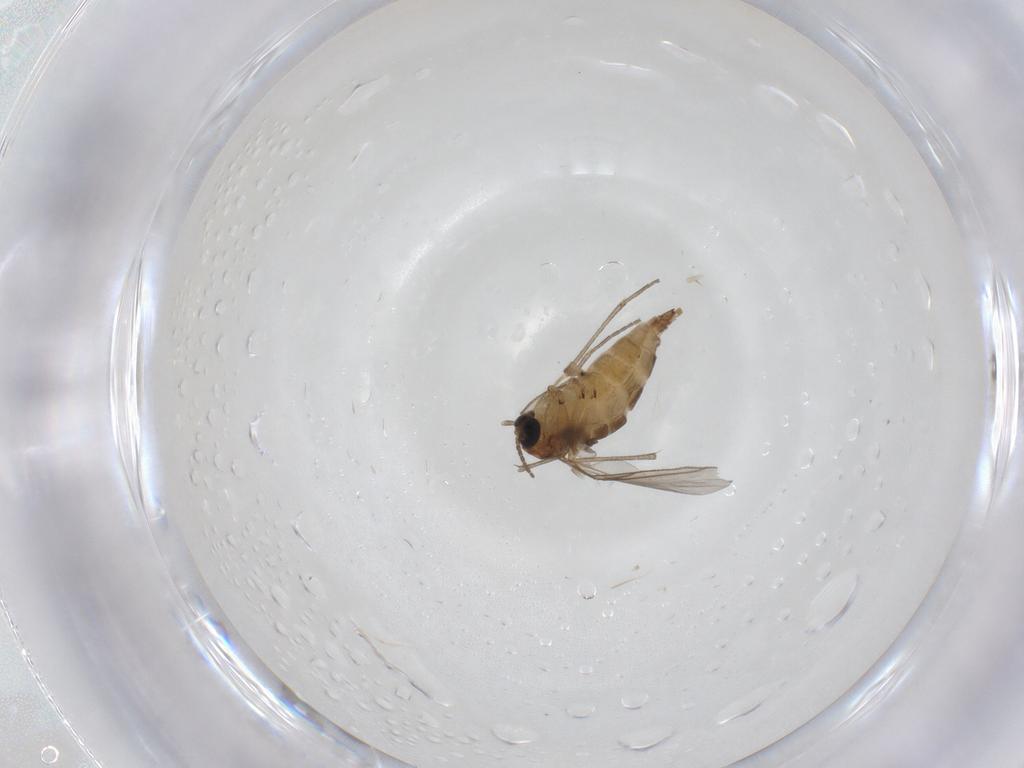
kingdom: Animalia
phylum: Arthropoda
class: Insecta
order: Diptera
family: Sciaridae
